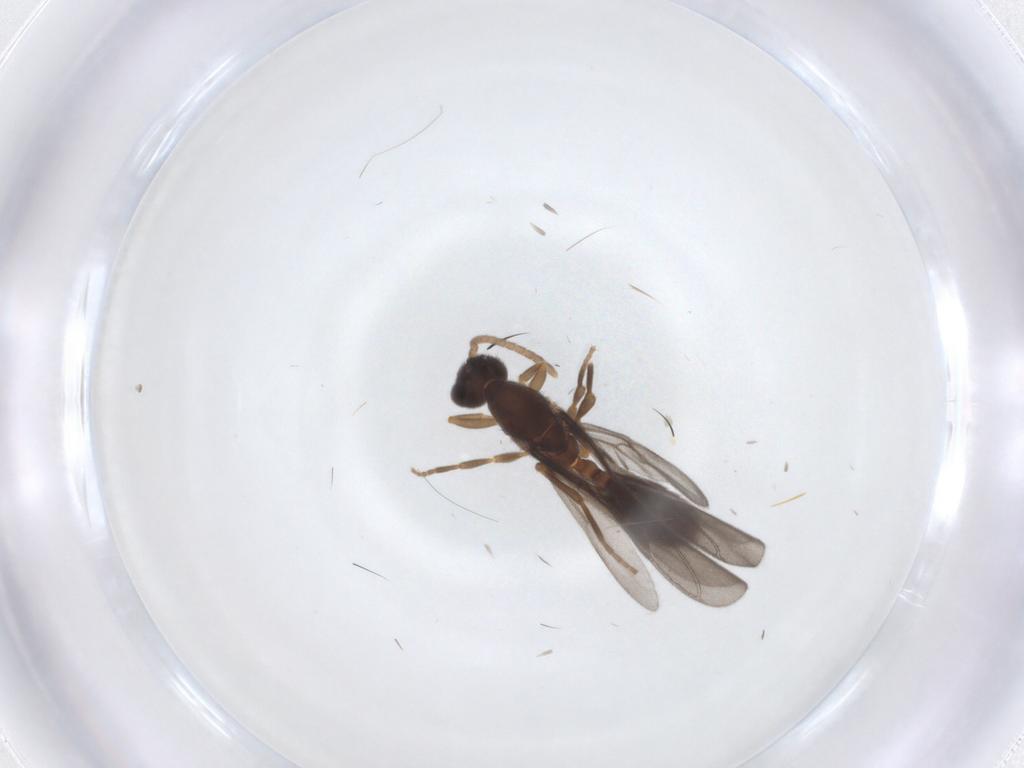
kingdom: Animalia
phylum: Arthropoda
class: Insecta
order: Hymenoptera
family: Formicidae
